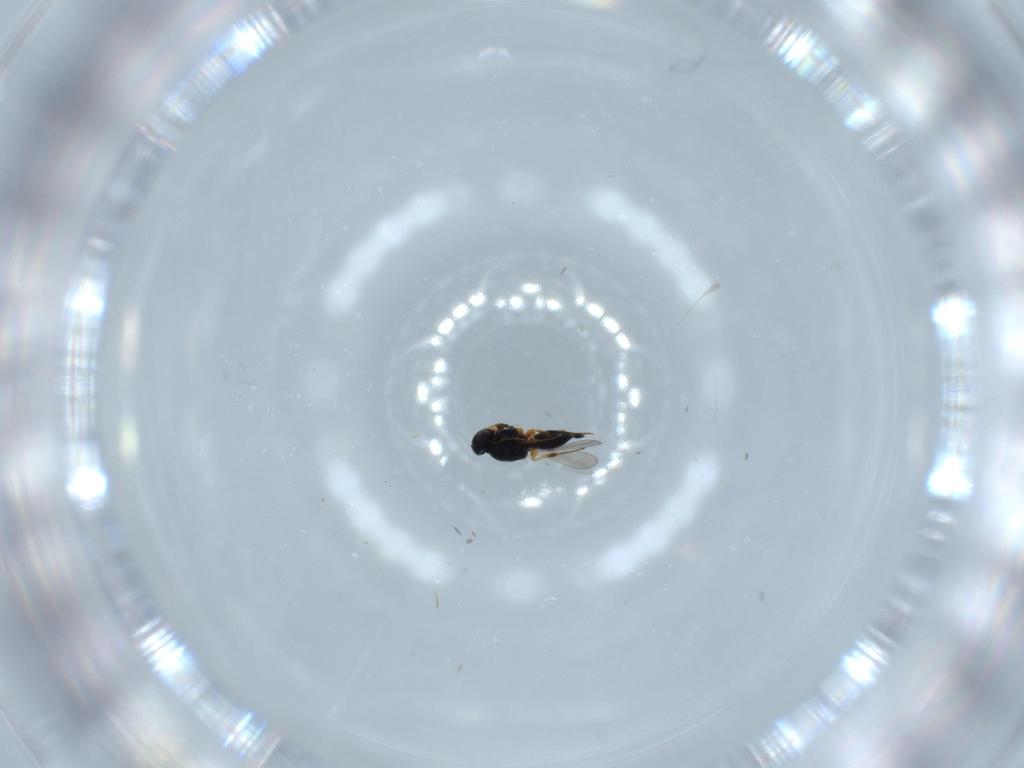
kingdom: Animalia
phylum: Arthropoda
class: Insecta
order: Hymenoptera
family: Platygastridae
